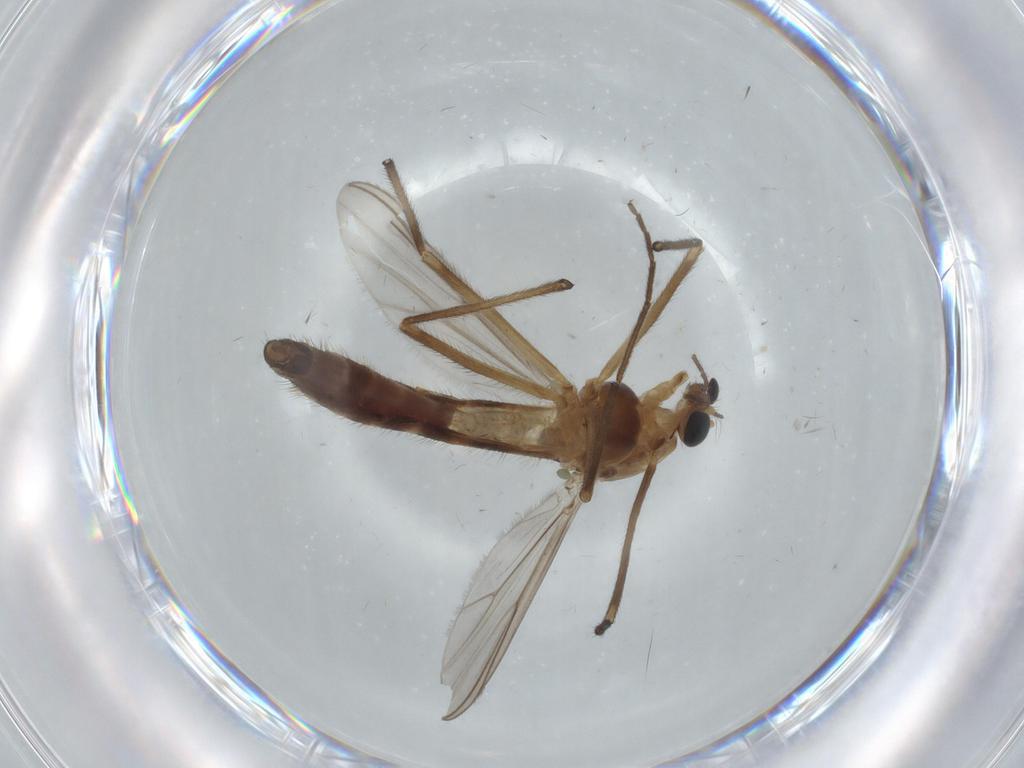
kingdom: Animalia
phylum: Arthropoda
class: Insecta
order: Diptera
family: Chironomidae
